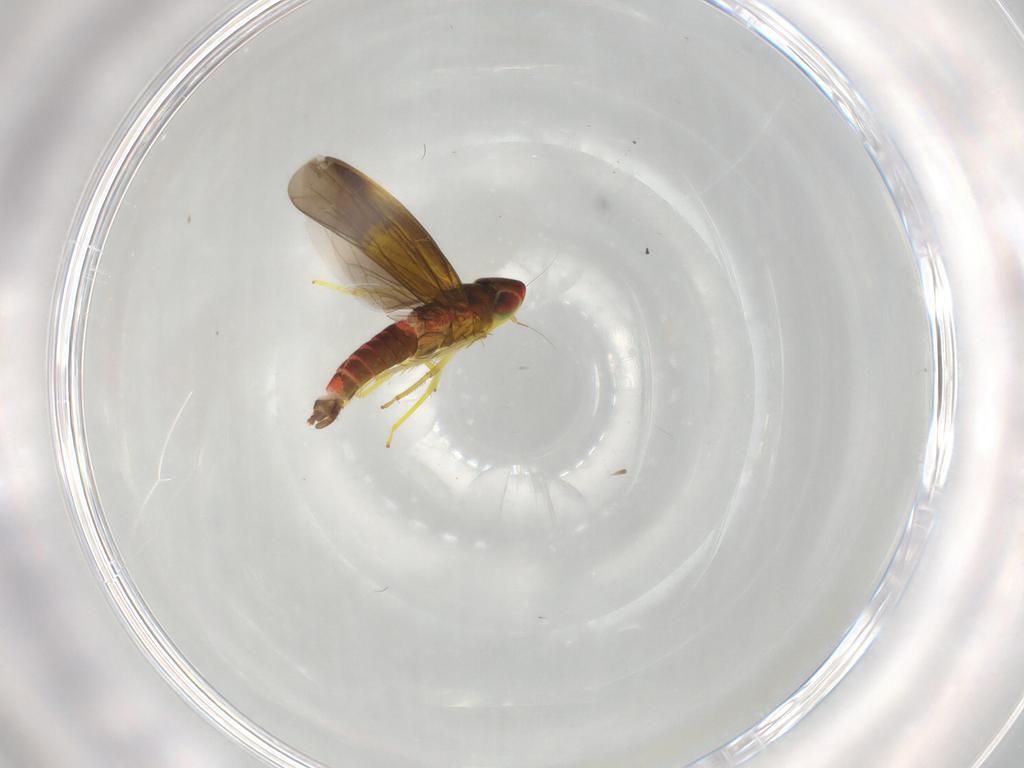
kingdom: Animalia
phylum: Arthropoda
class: Insecta
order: Hemiptera
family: Cicadellidae
